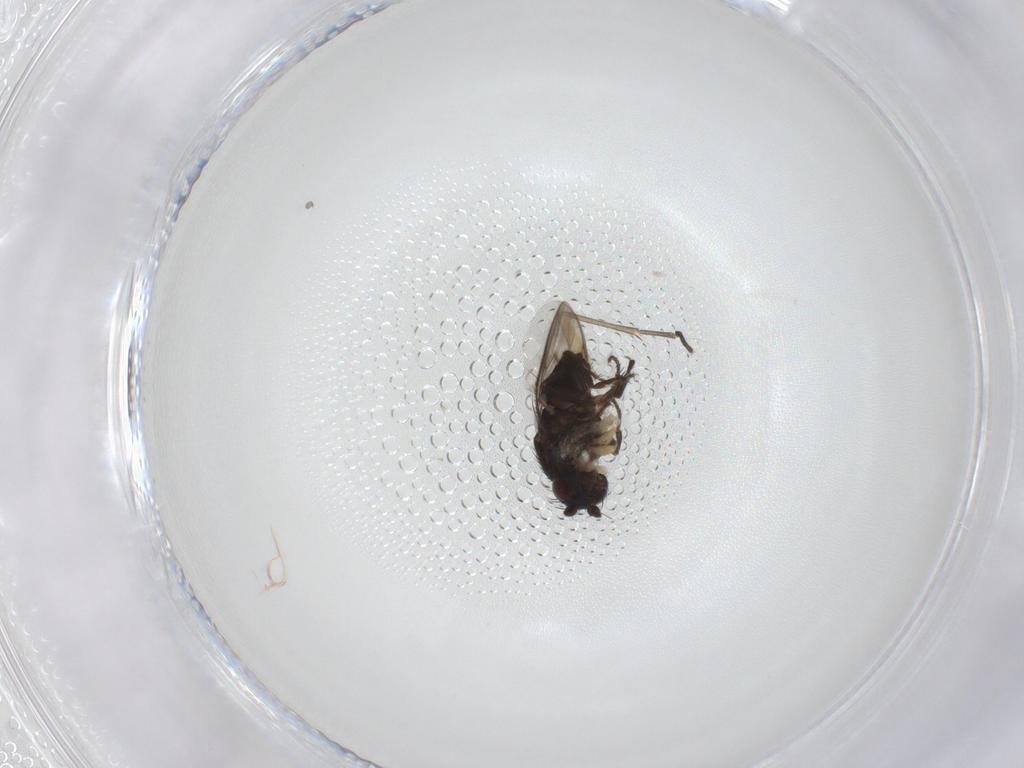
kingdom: Animalia
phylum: Arthropoda
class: Insecta
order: Diptera
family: Sphaeroceridae
